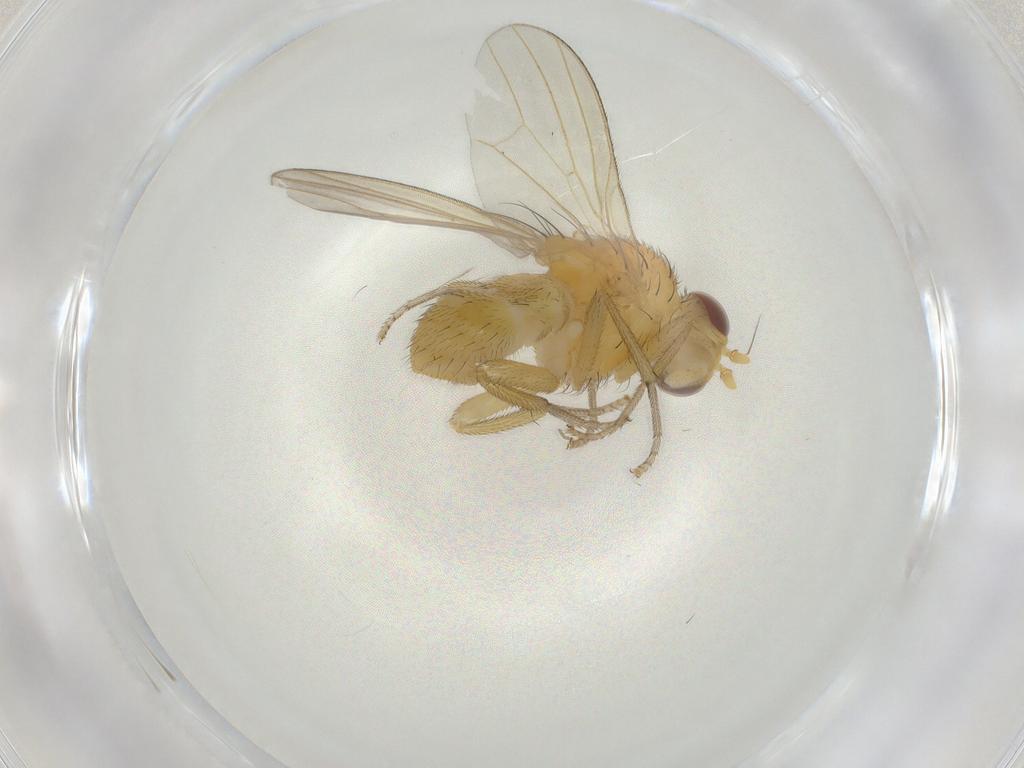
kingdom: Animalia
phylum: Arthropoda
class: Insecta
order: Diptera
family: Chironomidae
